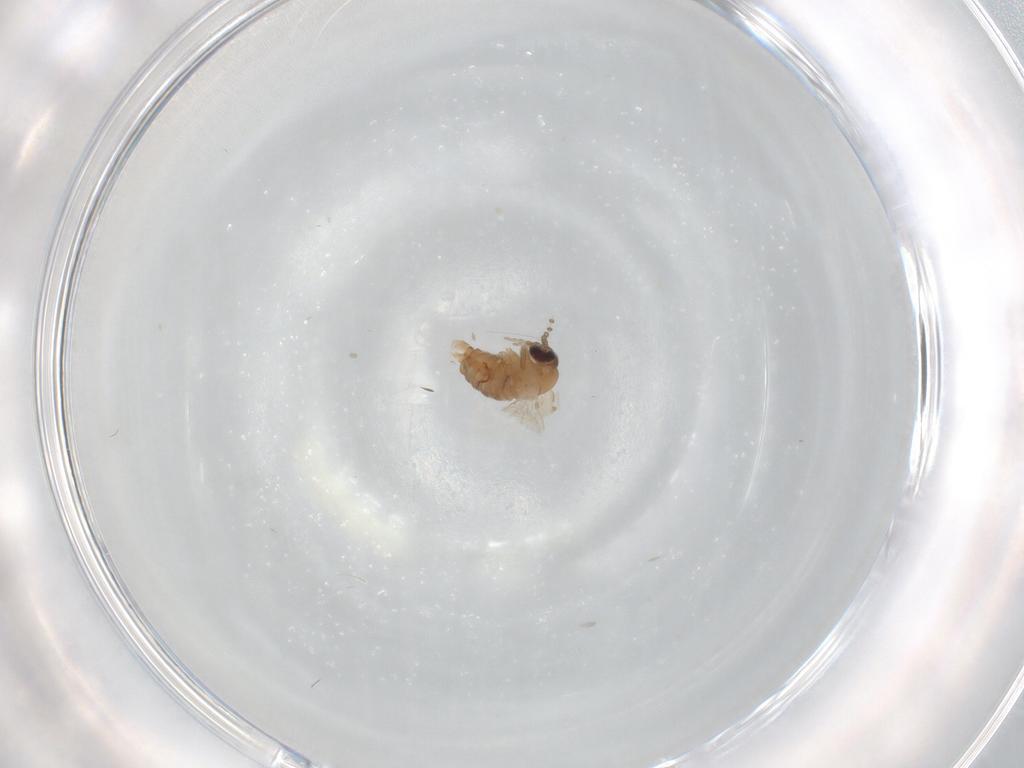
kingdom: Animalia
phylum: Arthropoda
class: Insecta
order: Diptera
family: Psychodidae
